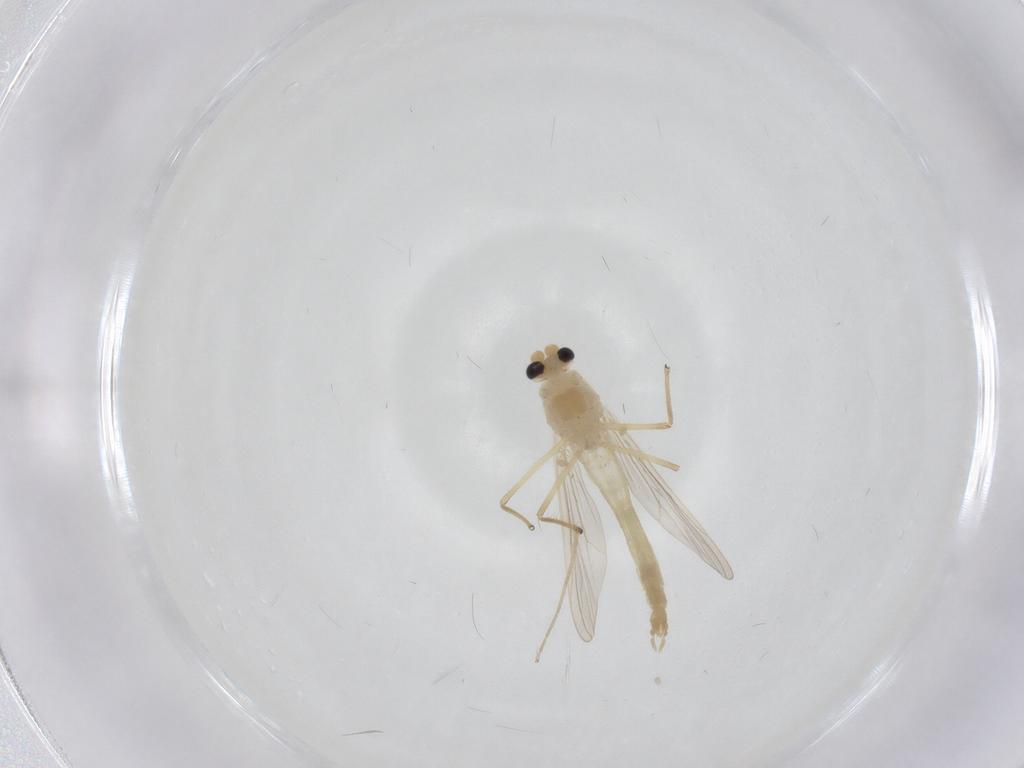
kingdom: Animalia
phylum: Arthropoda
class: Insecta
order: Diptera
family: Chironomidae
